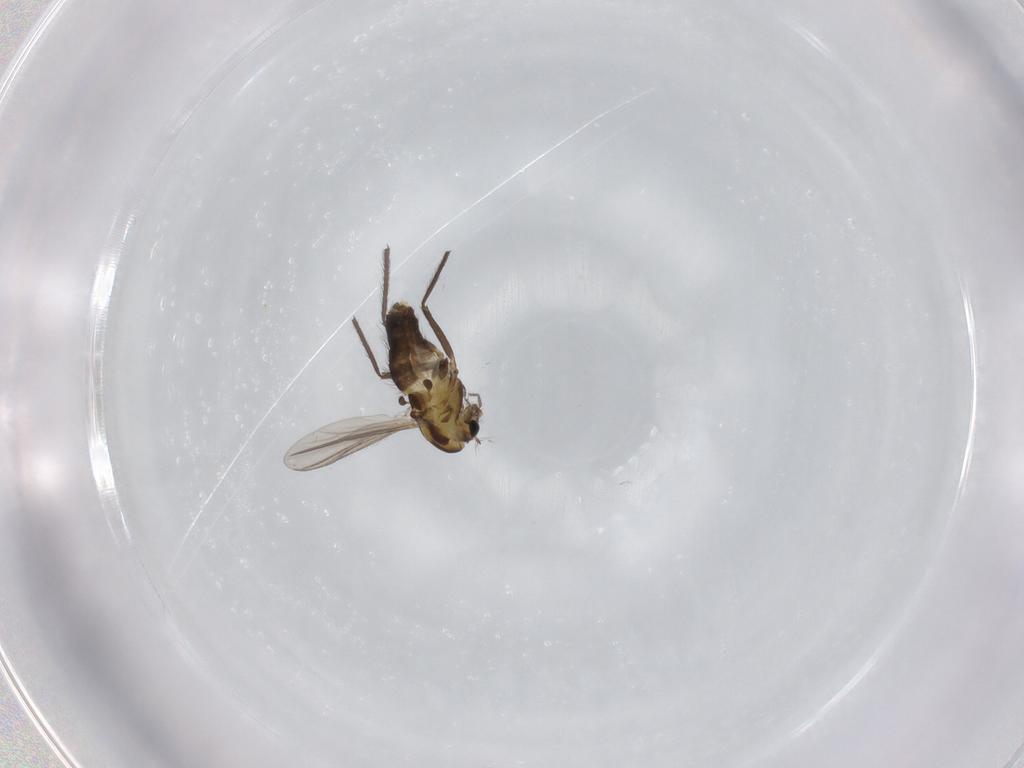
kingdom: Animalia
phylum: Arthropoda
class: Insecta
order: Diptera
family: Chironomidae
